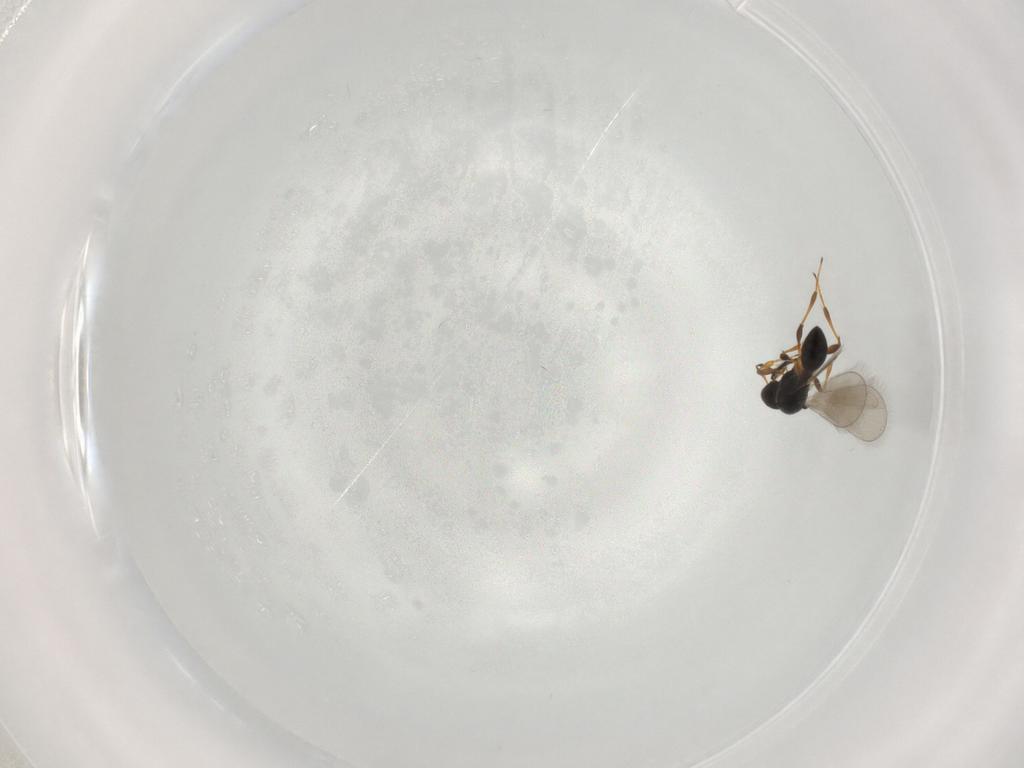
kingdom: Animalia
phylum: Arthropoda
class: Insecta
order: Hymenoptera
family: Platygastridae
